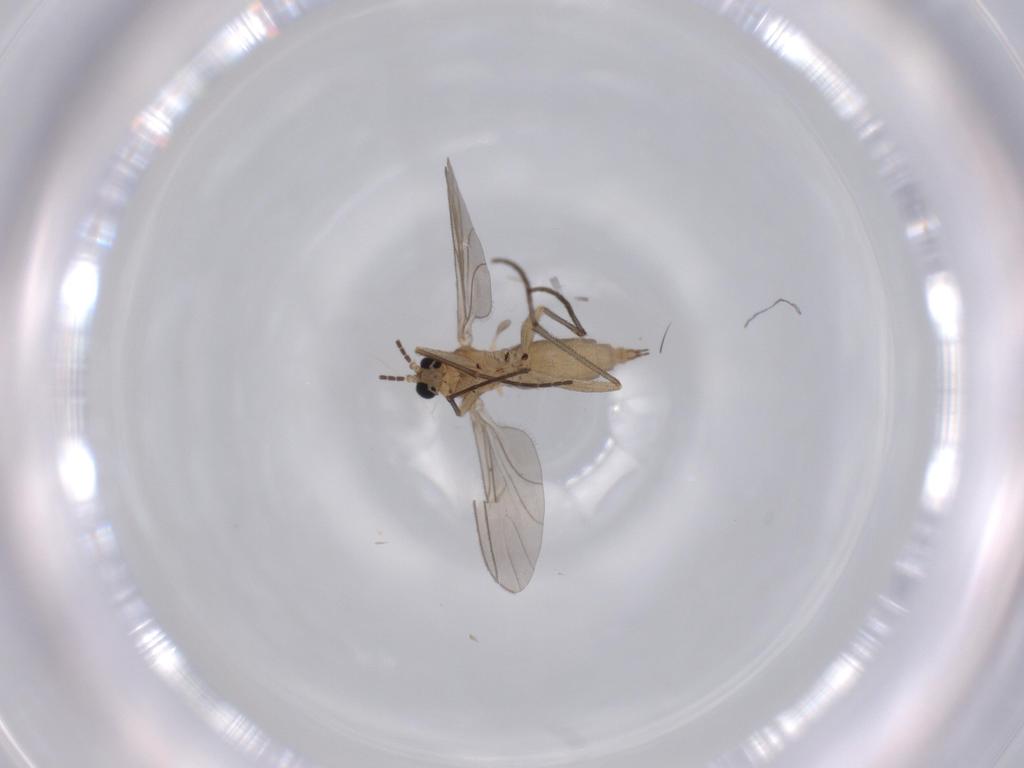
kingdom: Animalia
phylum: Arthropoda
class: Insecta
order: Diptera
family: Sciaridae
